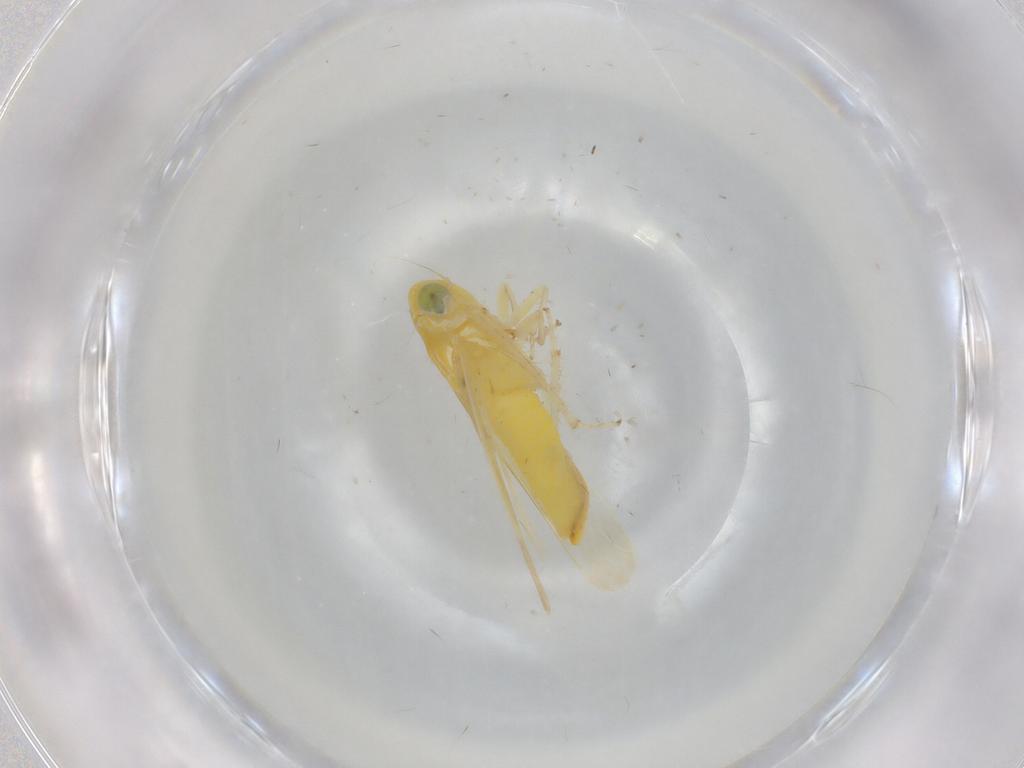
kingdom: Animalia
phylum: Arthropoda
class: Insecta
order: Hemiptera
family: Cicadellidae
